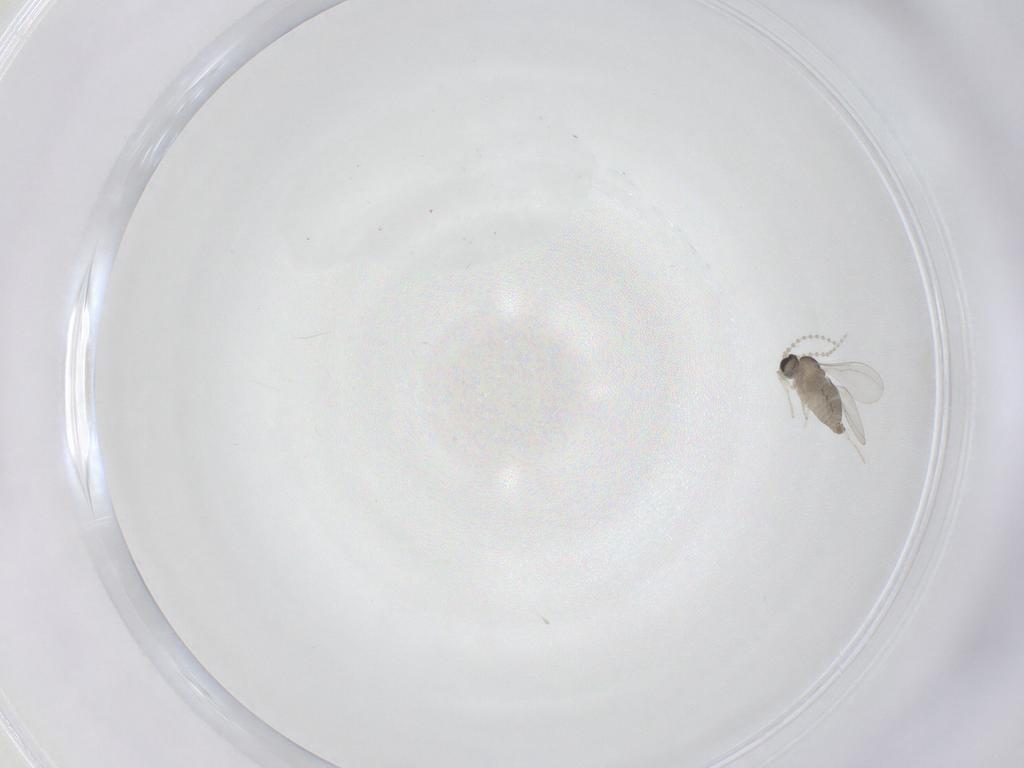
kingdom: Animalia
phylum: Arthropoda
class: Insecta
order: Diptera
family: Cecidomyiidae
